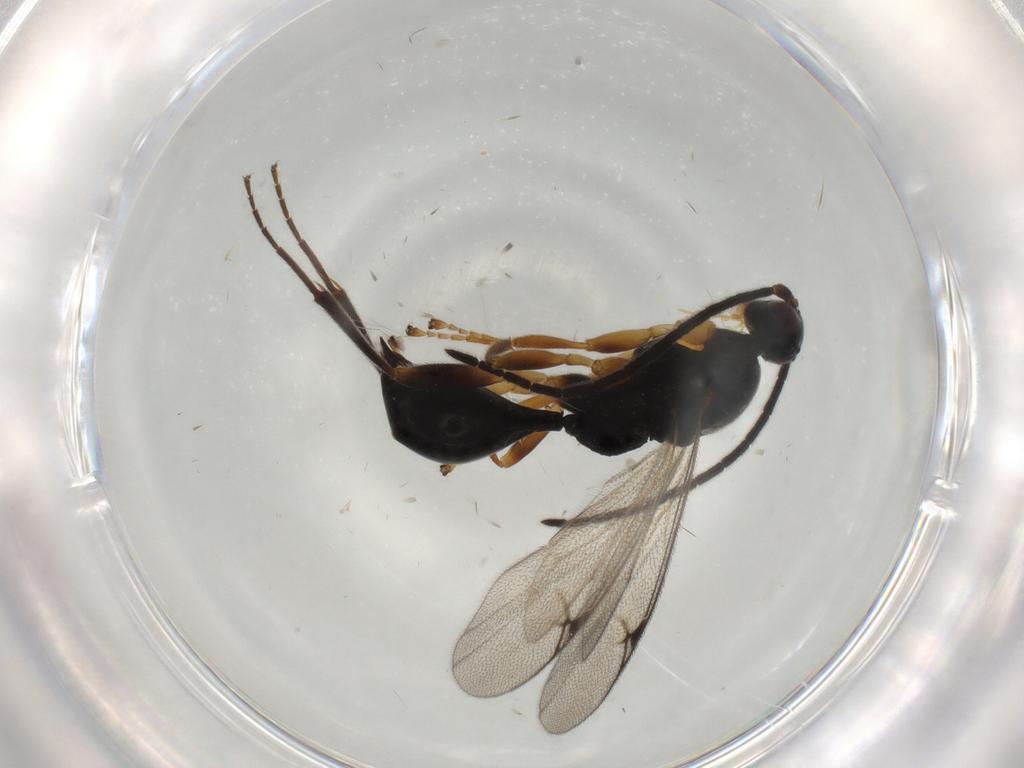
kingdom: Animalia
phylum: Arthropoda
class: Insecta
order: Hymenoptera
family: Proctotrupidae
